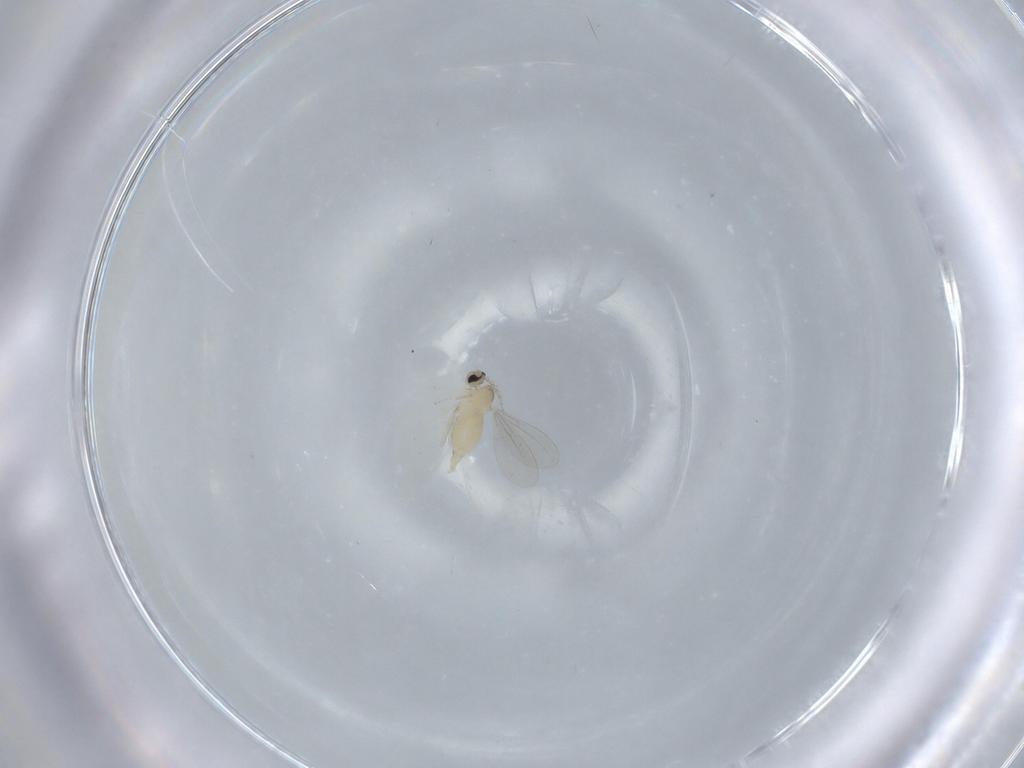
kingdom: Animalia
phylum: Arthropoda
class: Insecta
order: Diptera
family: Cecidomyiidae
